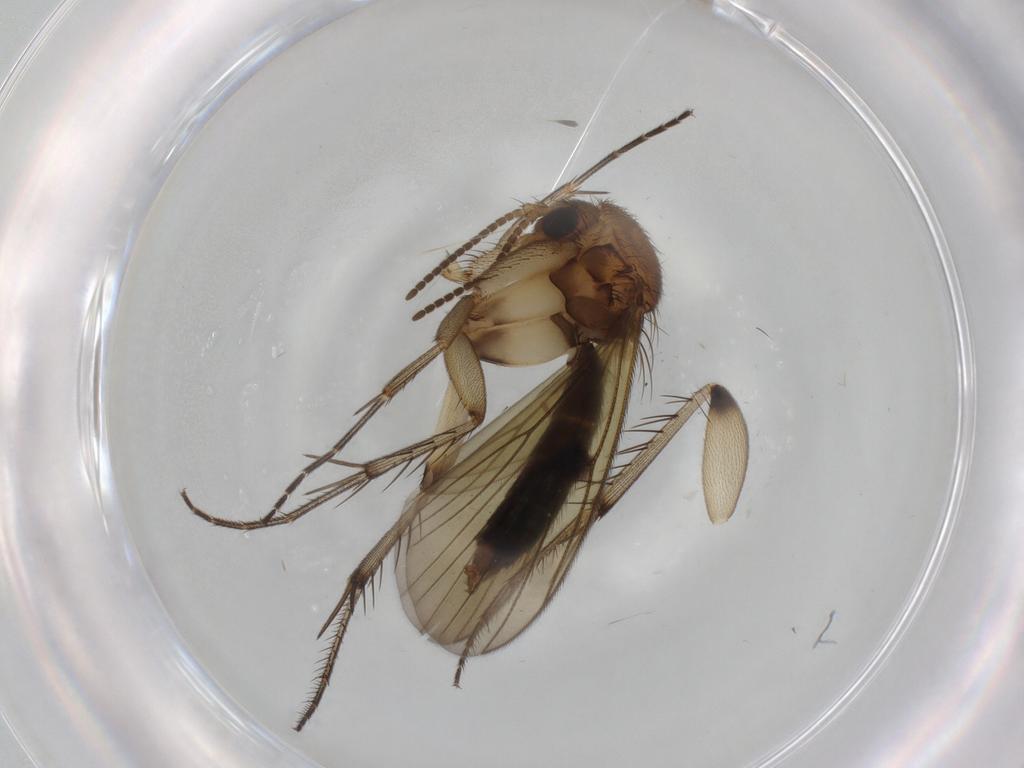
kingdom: Animalia
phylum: Arthropoda
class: Insecta
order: Diptera
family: Mycetophilidae
